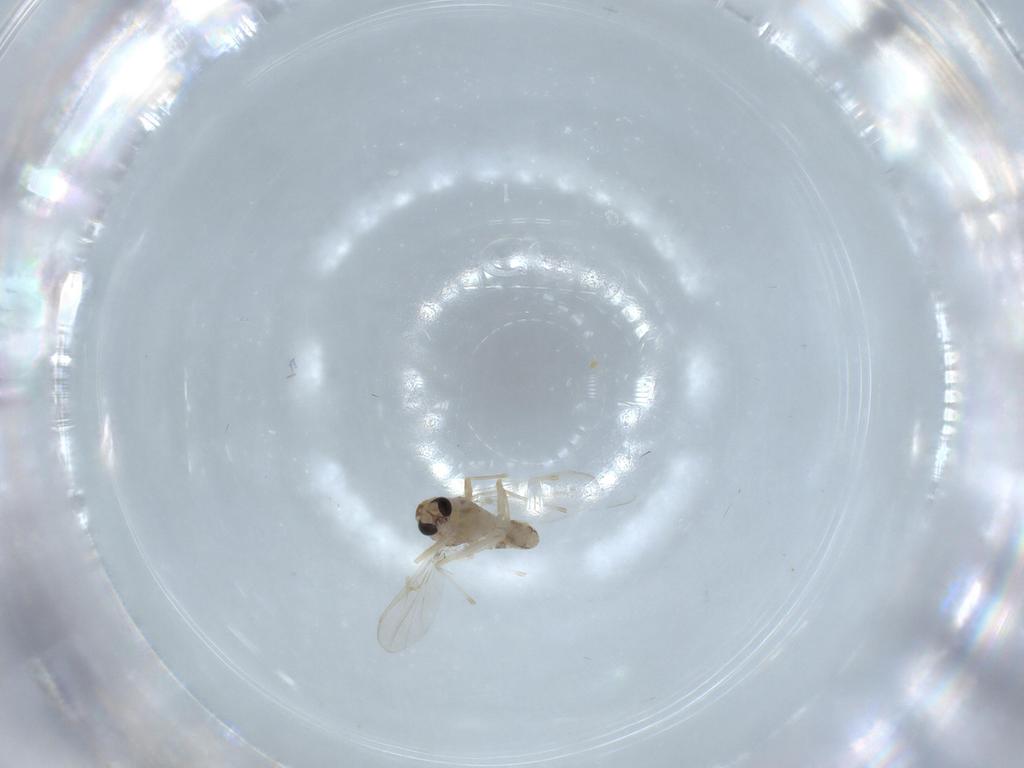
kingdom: Animalia
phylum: Arthropoda
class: Insecta
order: Diptera
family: Chironomidae
